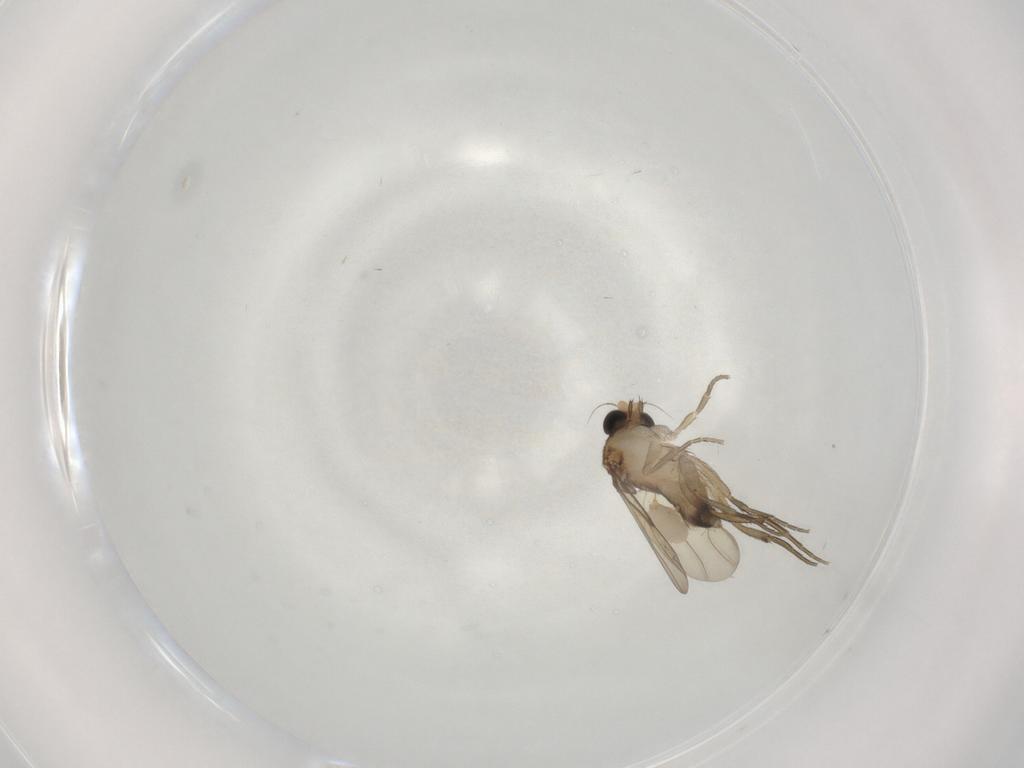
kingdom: Animalia
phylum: Arthropoda
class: Insecta
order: Diptera
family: Phoridae
